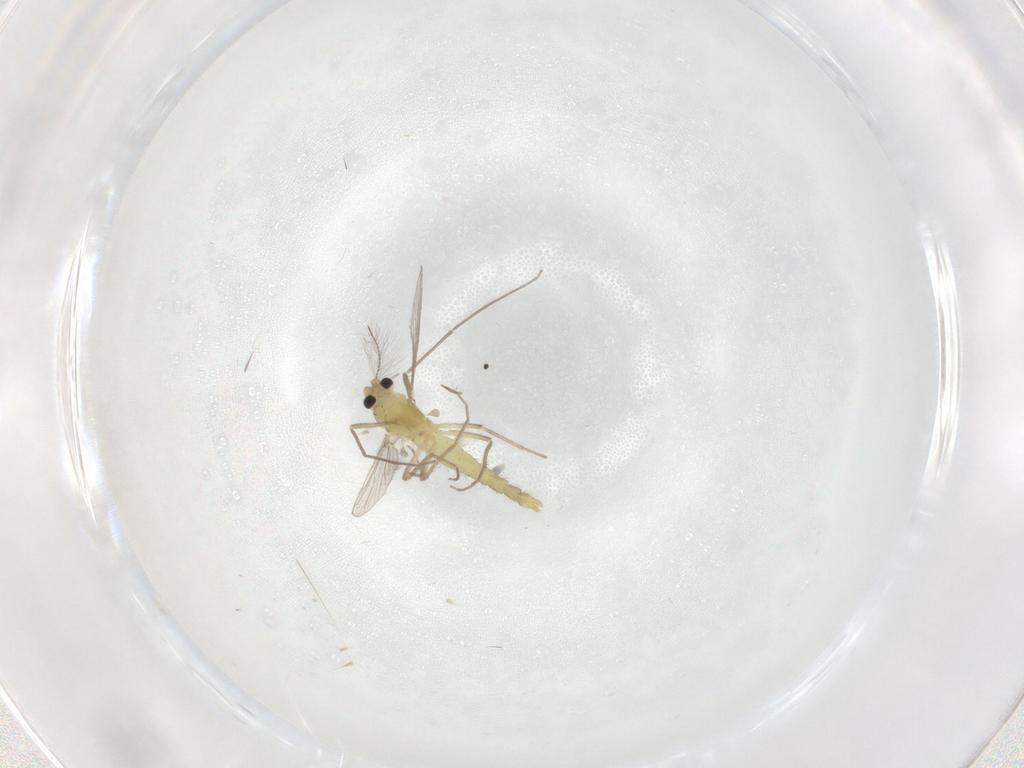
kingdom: Animalia
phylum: Arthropoda
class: Insecta
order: Diptera
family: Chironomidae
